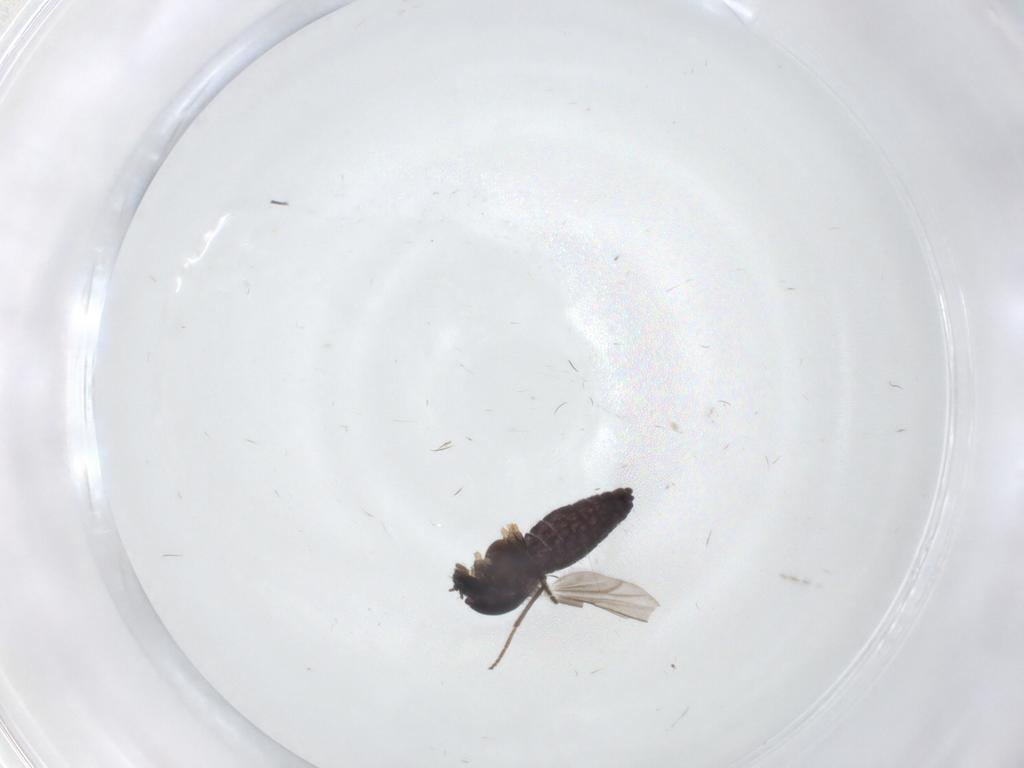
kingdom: Animalia
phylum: Arthropoda
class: Insecta
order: Diptera
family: Chironomidae
